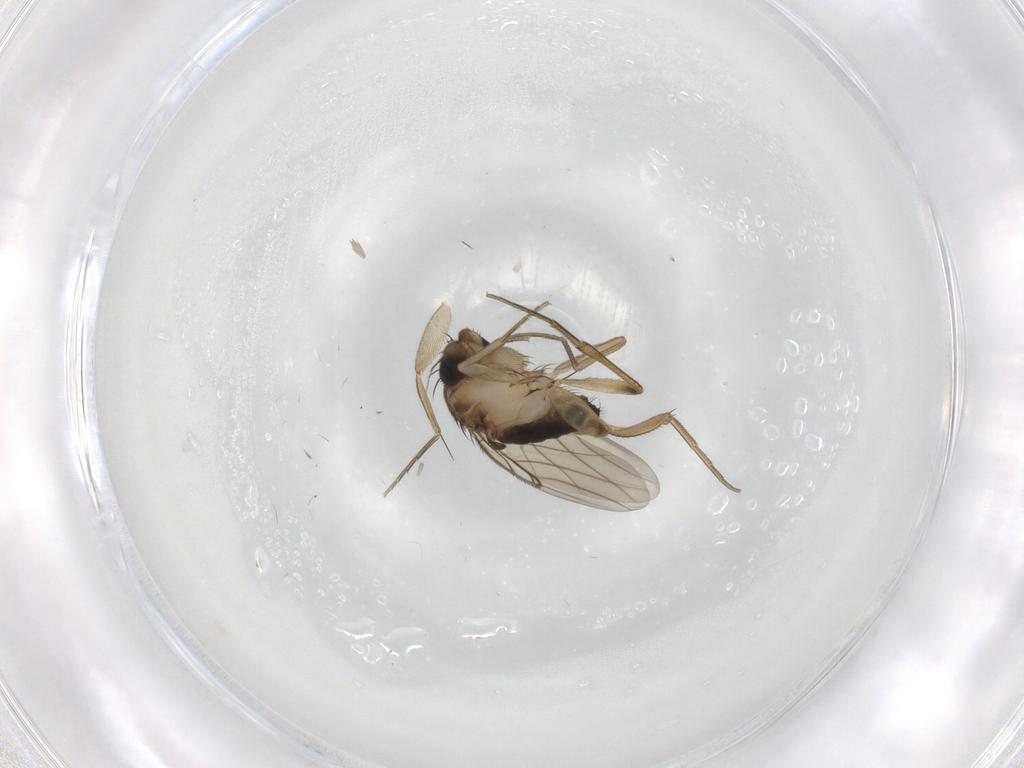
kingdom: Animalia
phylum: Arthropoda
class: Insecta
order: Diptera
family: Phoridae
